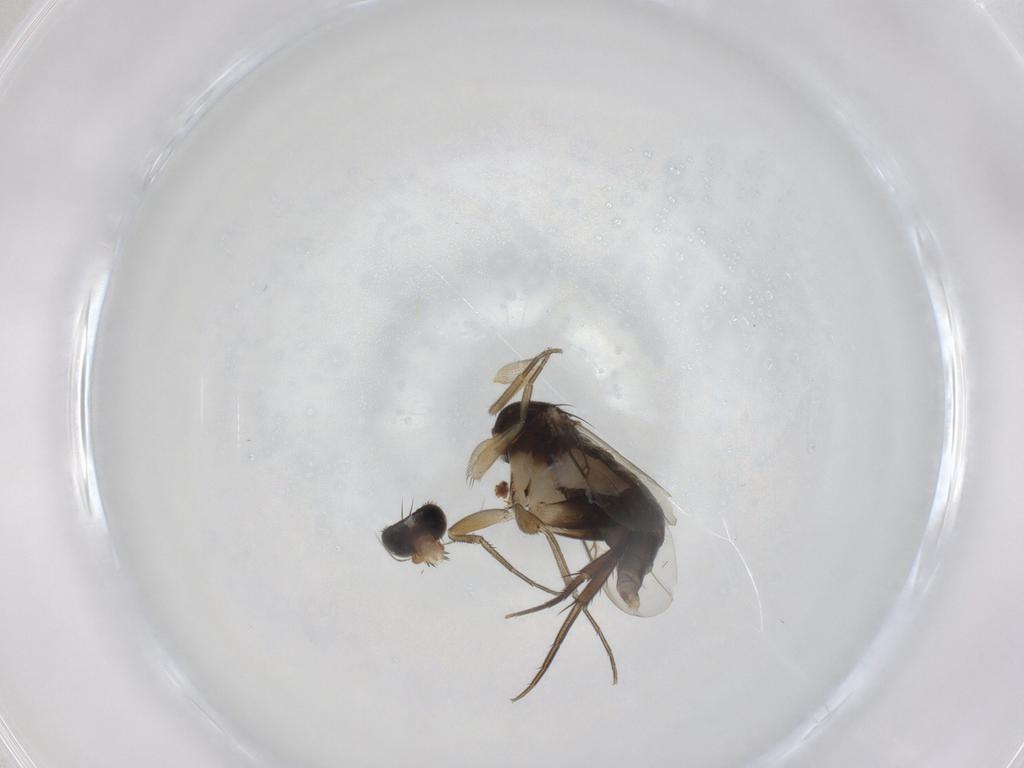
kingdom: Animalia
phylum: Arthropoda
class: Insecta
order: Diptera
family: Phoridae
